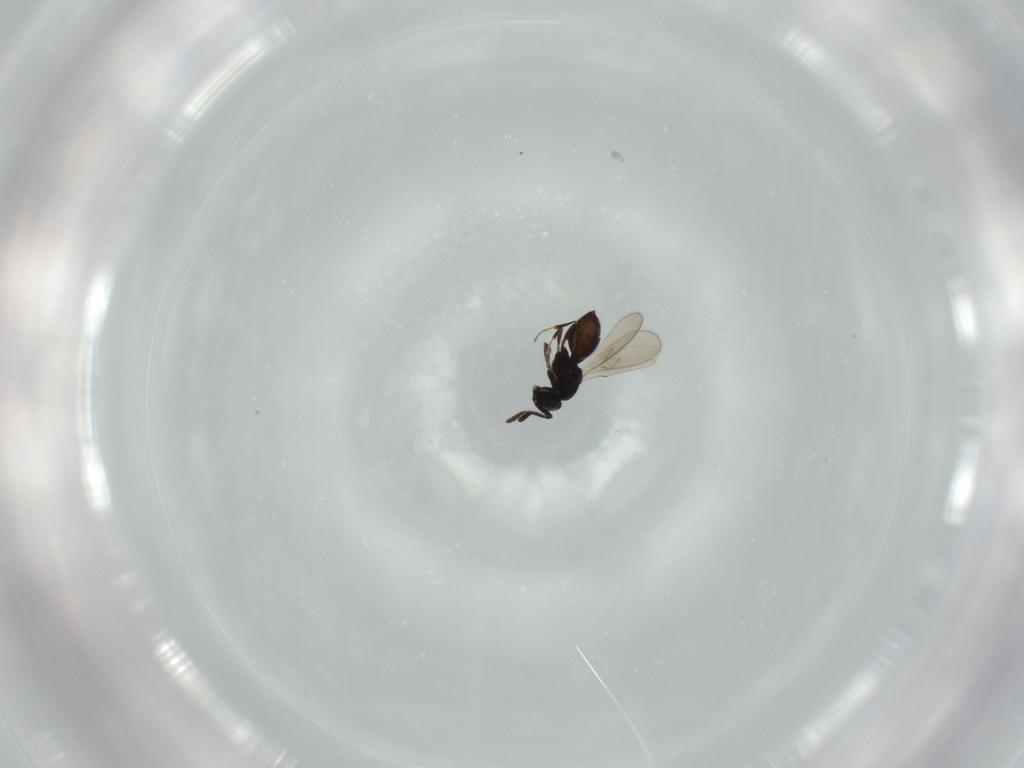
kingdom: Animalia
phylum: Arthropoda
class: Insecta
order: Hymenoptera
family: Scelionidae
